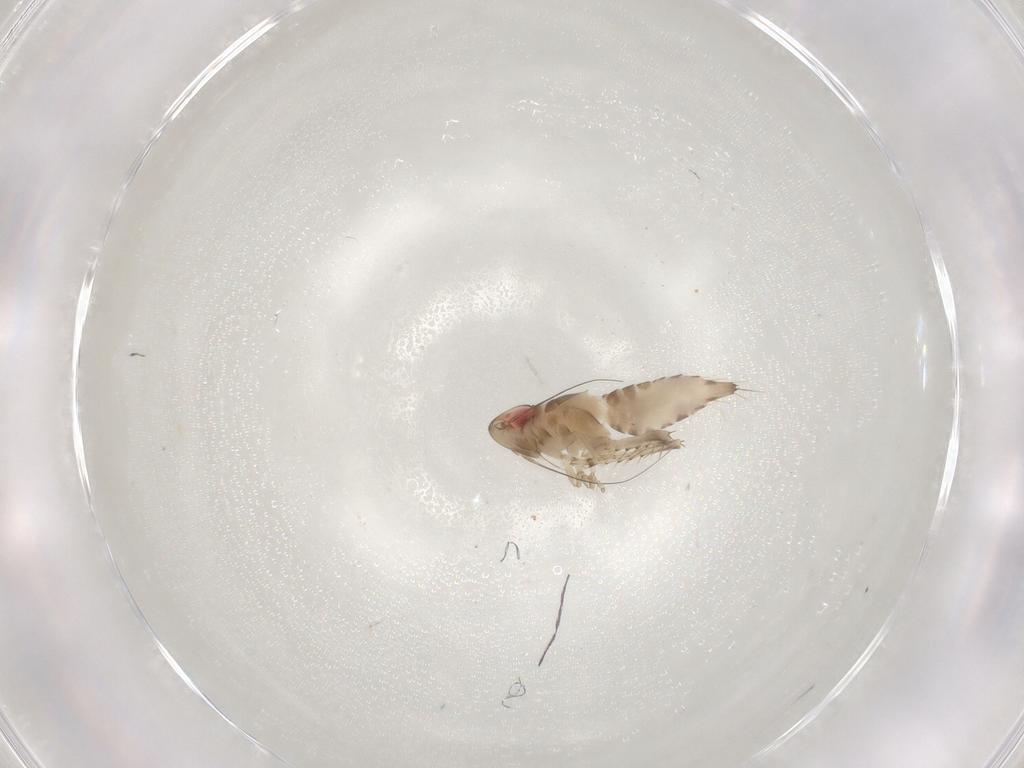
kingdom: Animalia
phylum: Arthropoda
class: Insecta
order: Hemiptera
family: Cicadellidae
